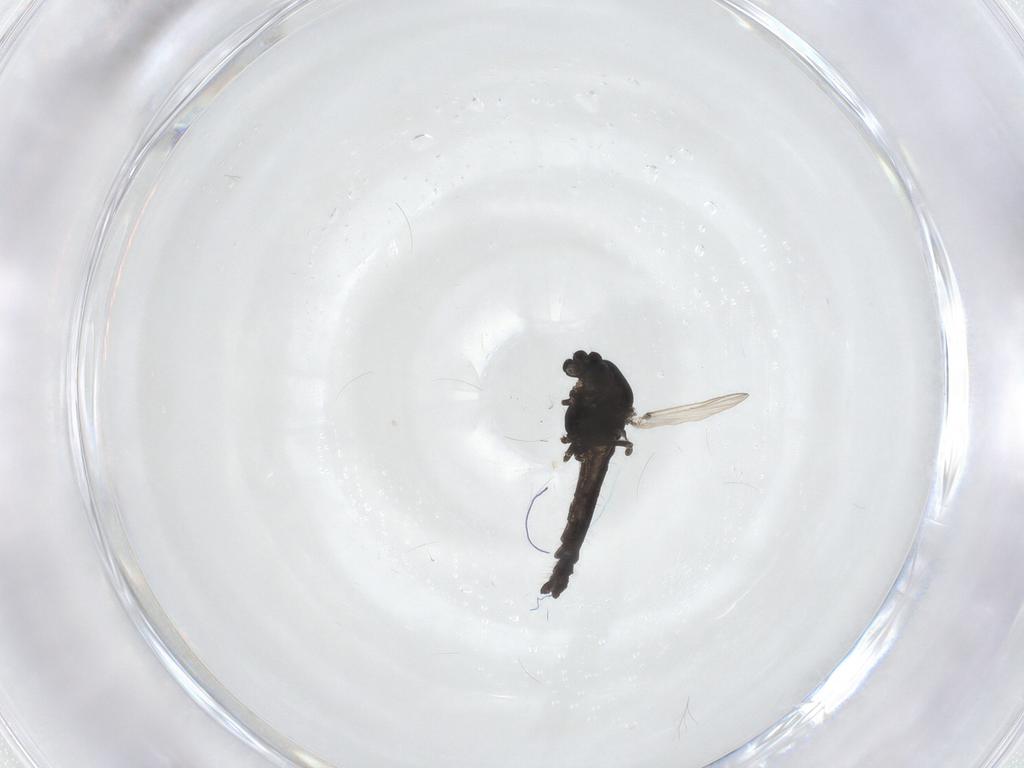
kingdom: Animalia
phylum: Arthropoda
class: Insecta
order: Diptera
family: Chironomidae
